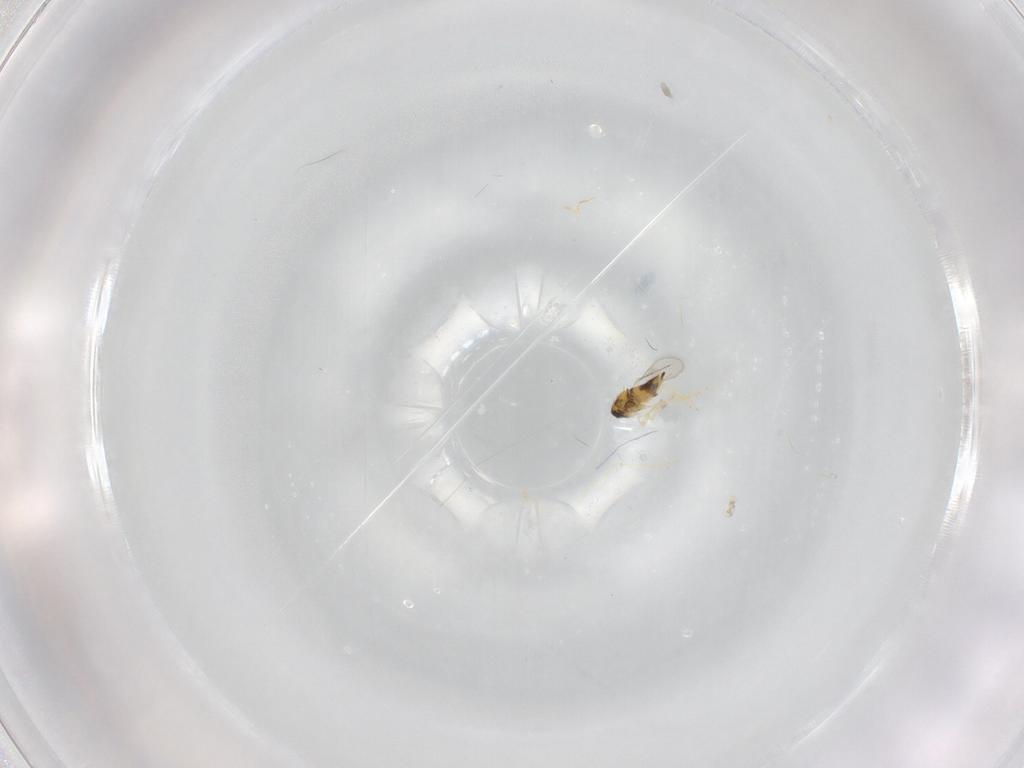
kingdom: Animalia
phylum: Arthropoda
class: Insecta
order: Hymenoptera
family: Aphelinidae
